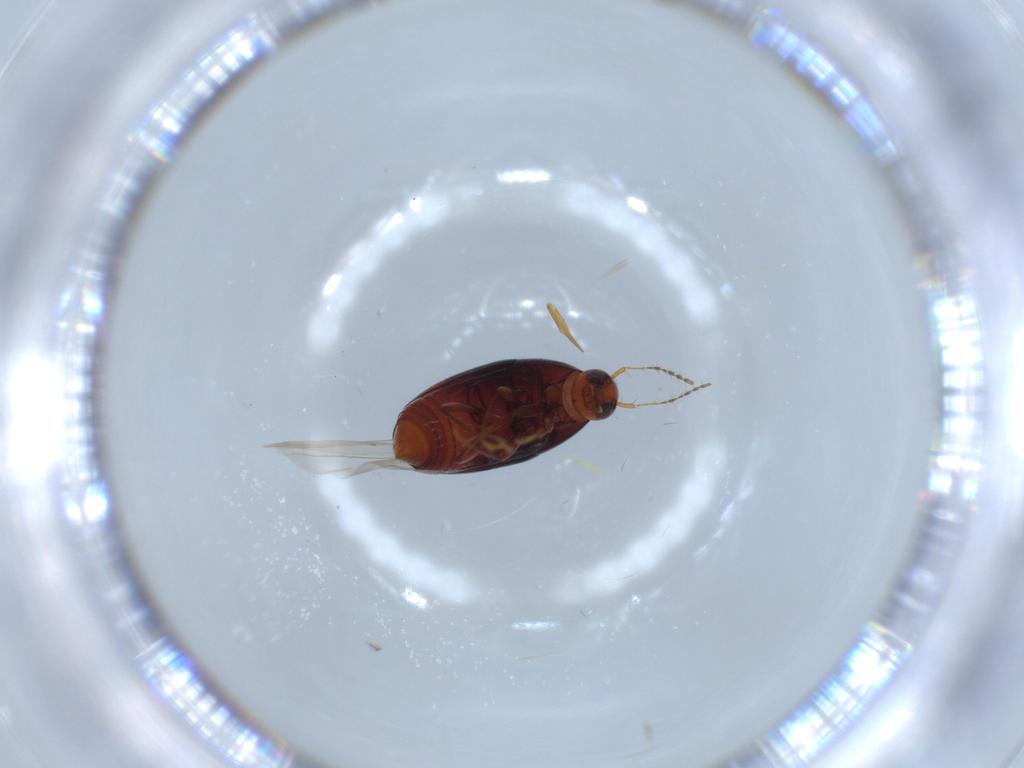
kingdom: Animalia
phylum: Arthropoda
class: Insecta
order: Coleoptera
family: Staphylinidae
